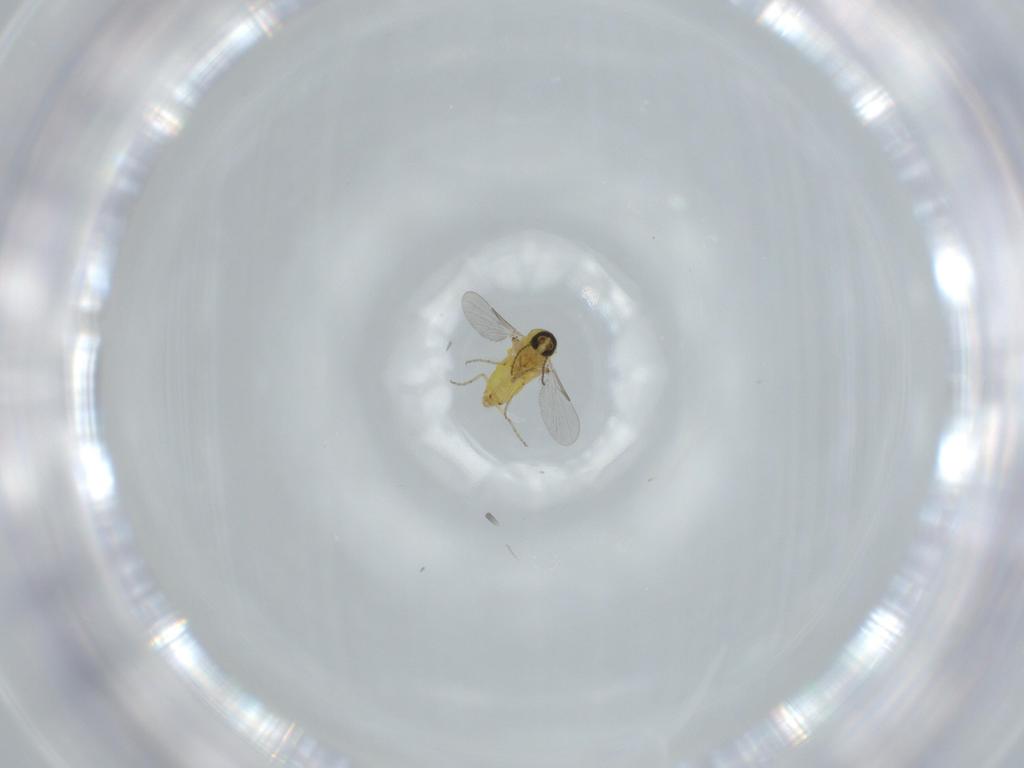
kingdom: Animalia
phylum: Arthropoda
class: Insecta
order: Diptera
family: Ceratopogonidae
